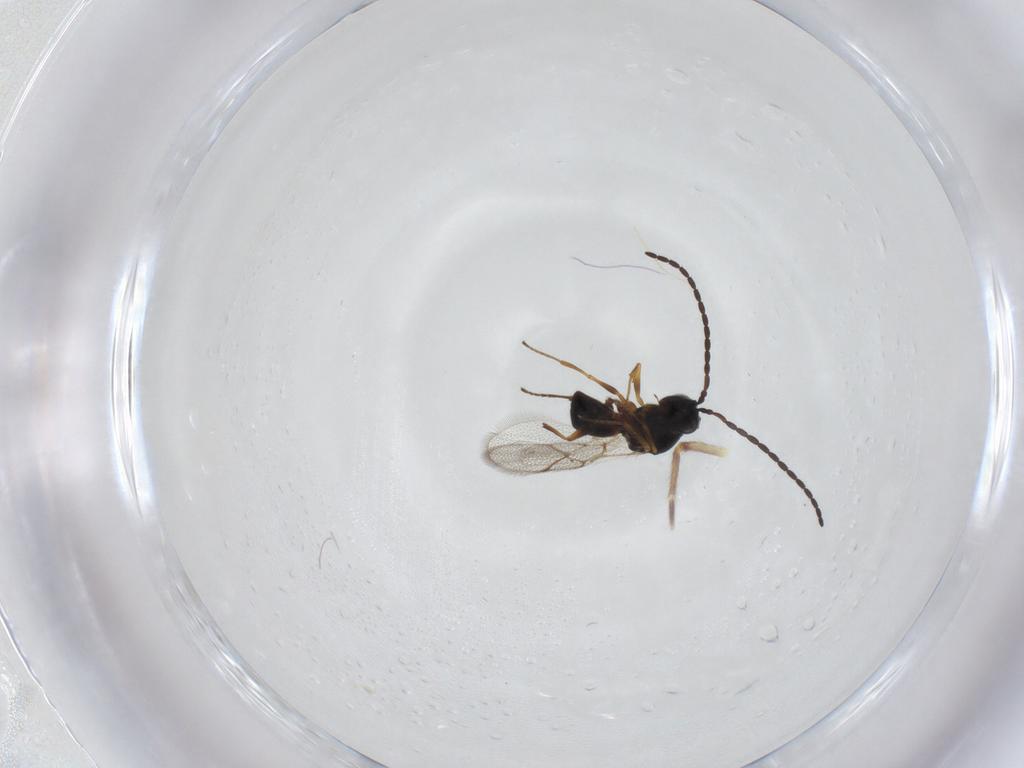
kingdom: Animalia
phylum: Arthropoda
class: Insecta
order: Hymenoptera
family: Figitidae
